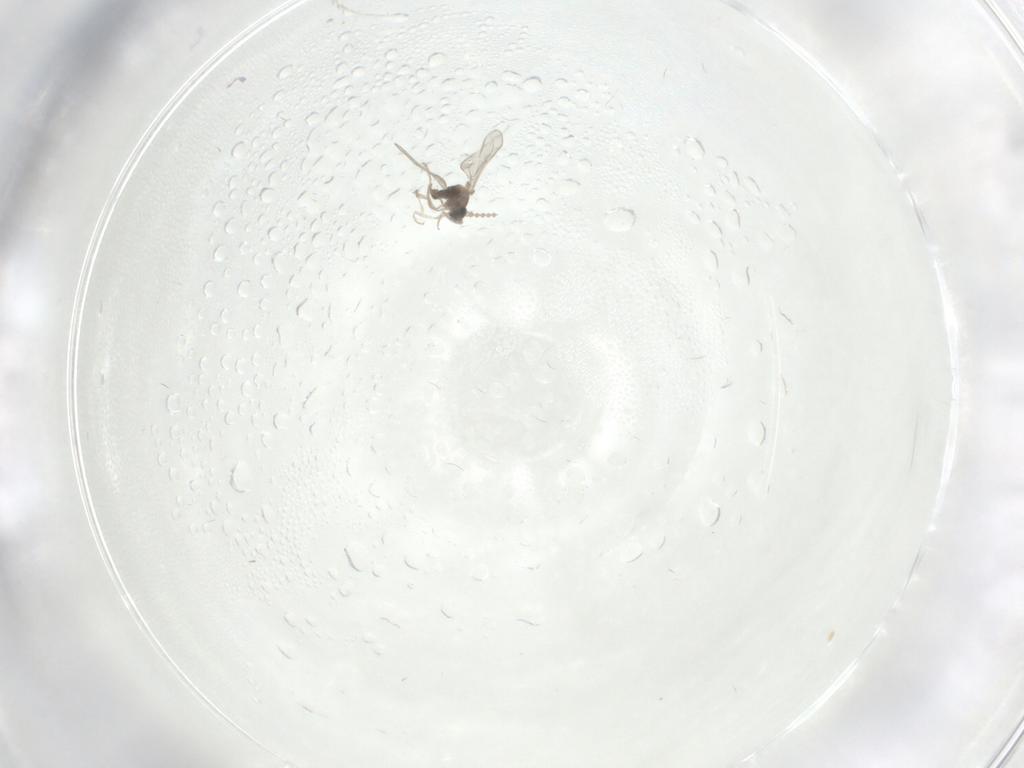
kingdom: Animalia
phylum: Arthropoda
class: Insecta
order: Diptera
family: Limoniidae
